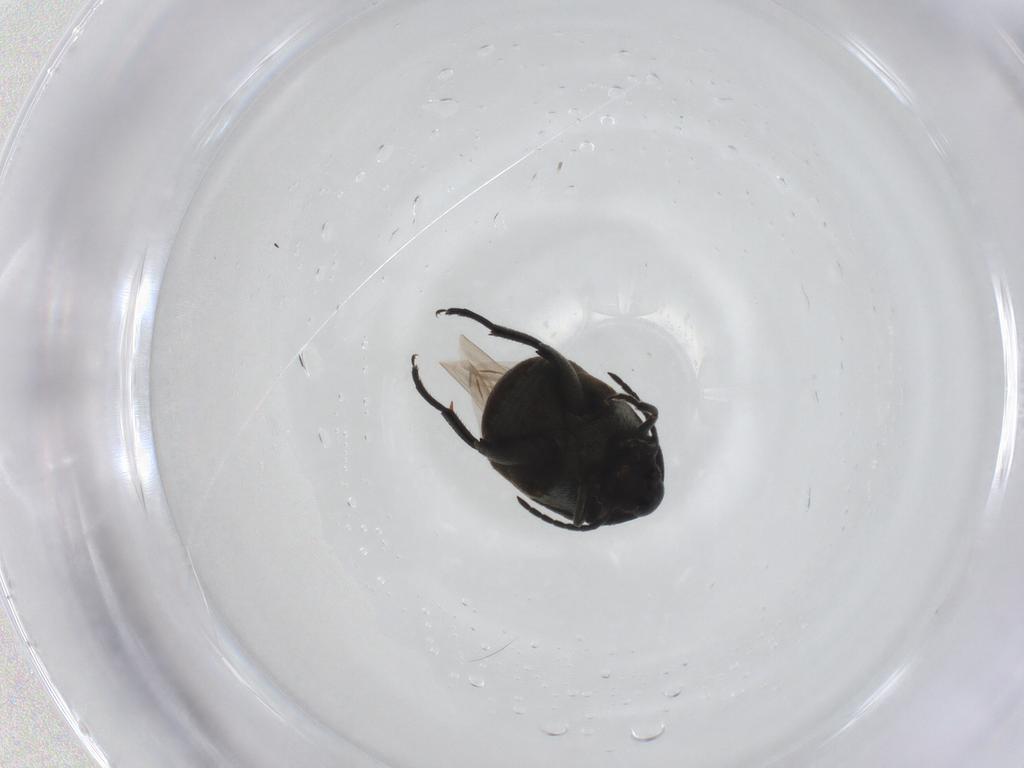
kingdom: Animalia
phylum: Arthropoda
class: Insecta
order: Coleoptera
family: Chrysomelidae
